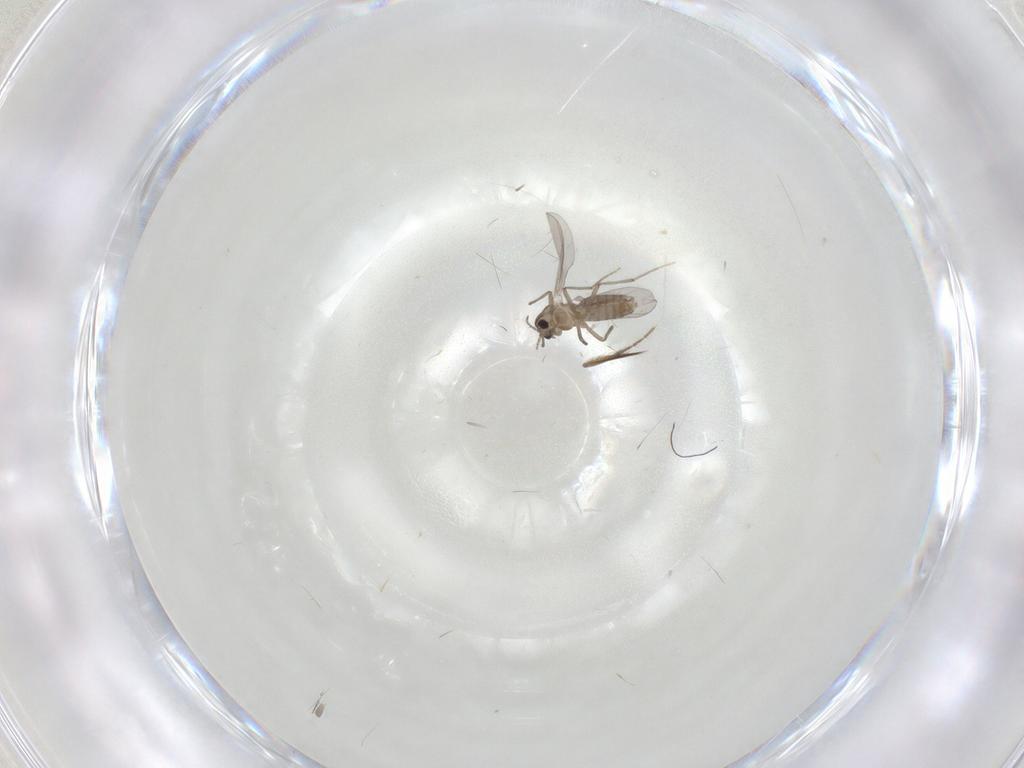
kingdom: Animalia
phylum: Arthropoda
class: Insecta
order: Diptera
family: Chironomidae
